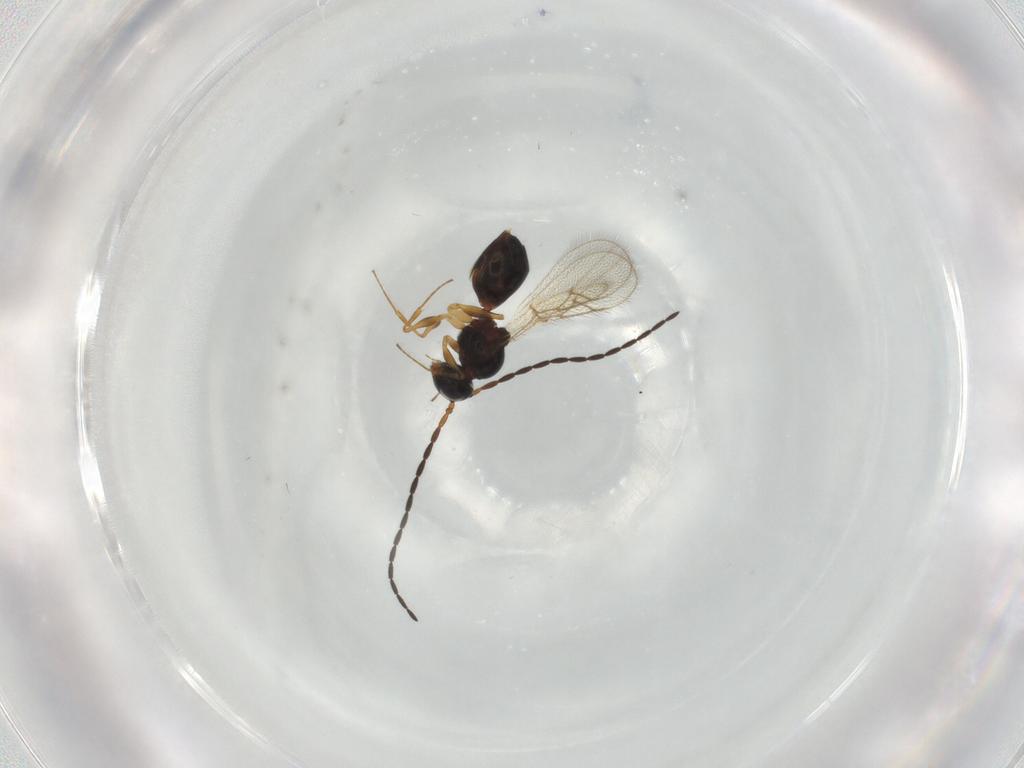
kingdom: Animalia
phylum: Arthropoda
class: Insecta
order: Hymenoptera
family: Figitidae
